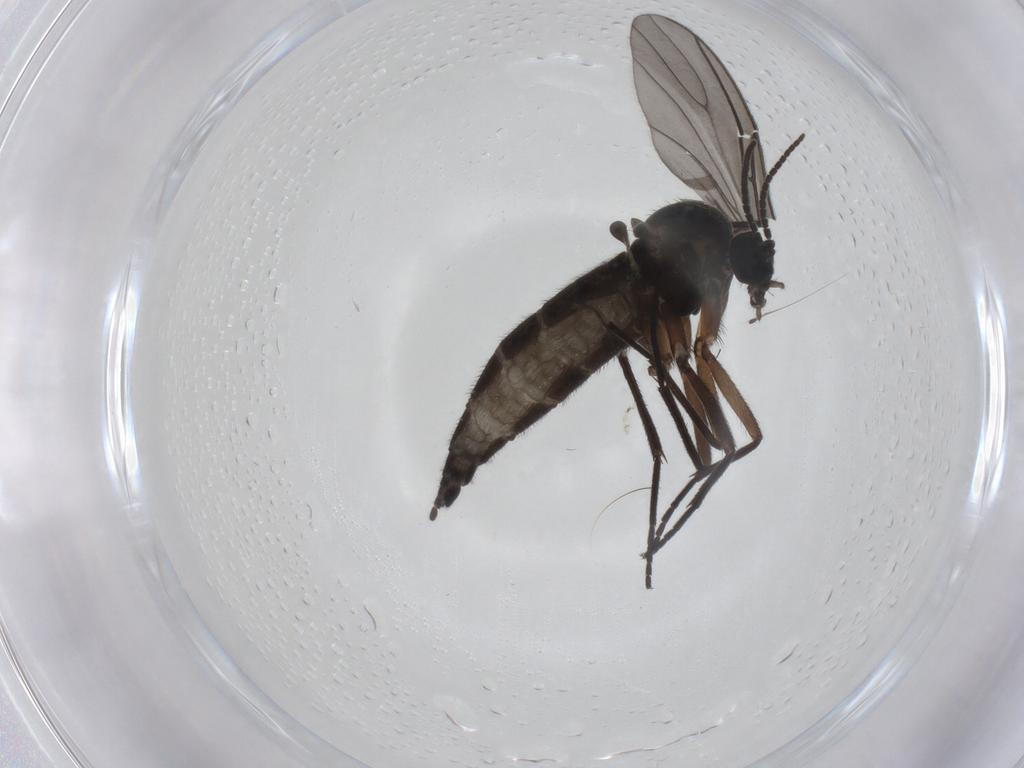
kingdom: Animalia
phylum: Arthropoda
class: Insecta
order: Diptera
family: Sciaridae
